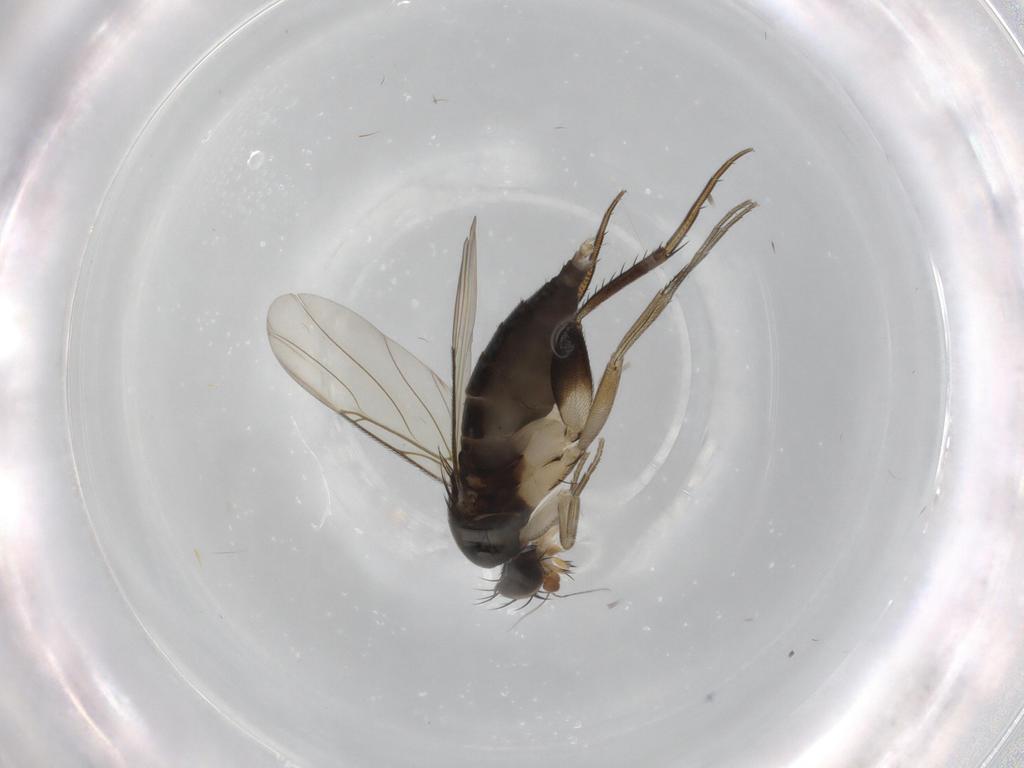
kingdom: Animalia
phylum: Arthropoda
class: Insecta
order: Diptera
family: Phoridae
